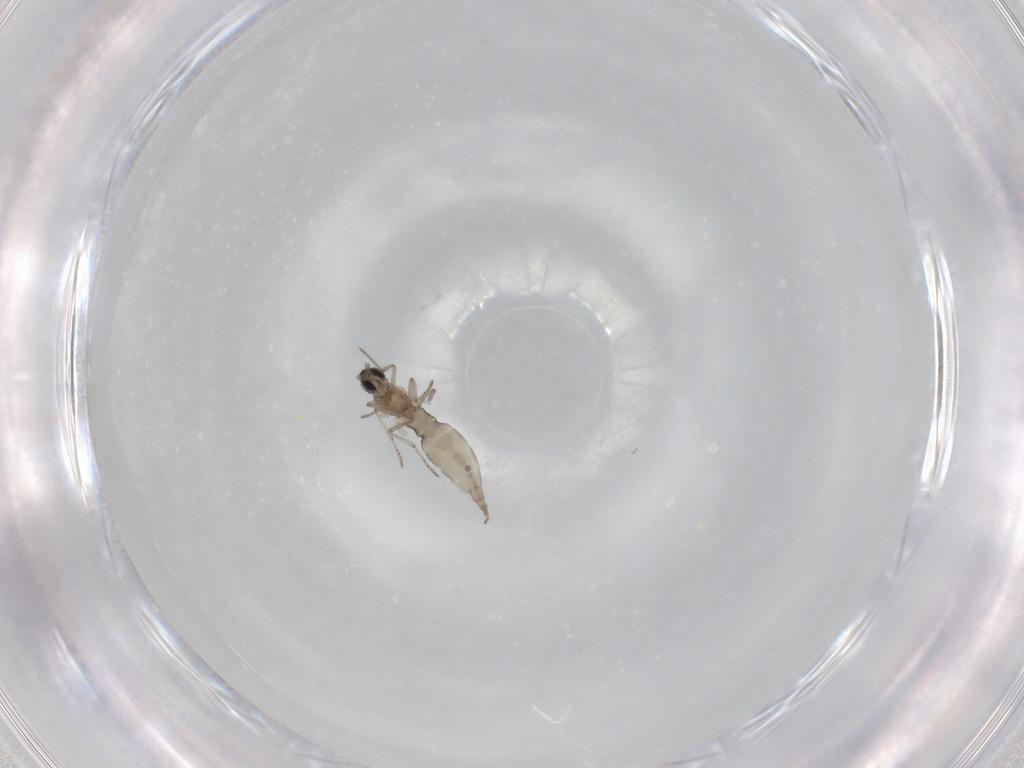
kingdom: Animalia
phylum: Arthropoda
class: Insecta
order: Diptera
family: Cecidomyiidae
